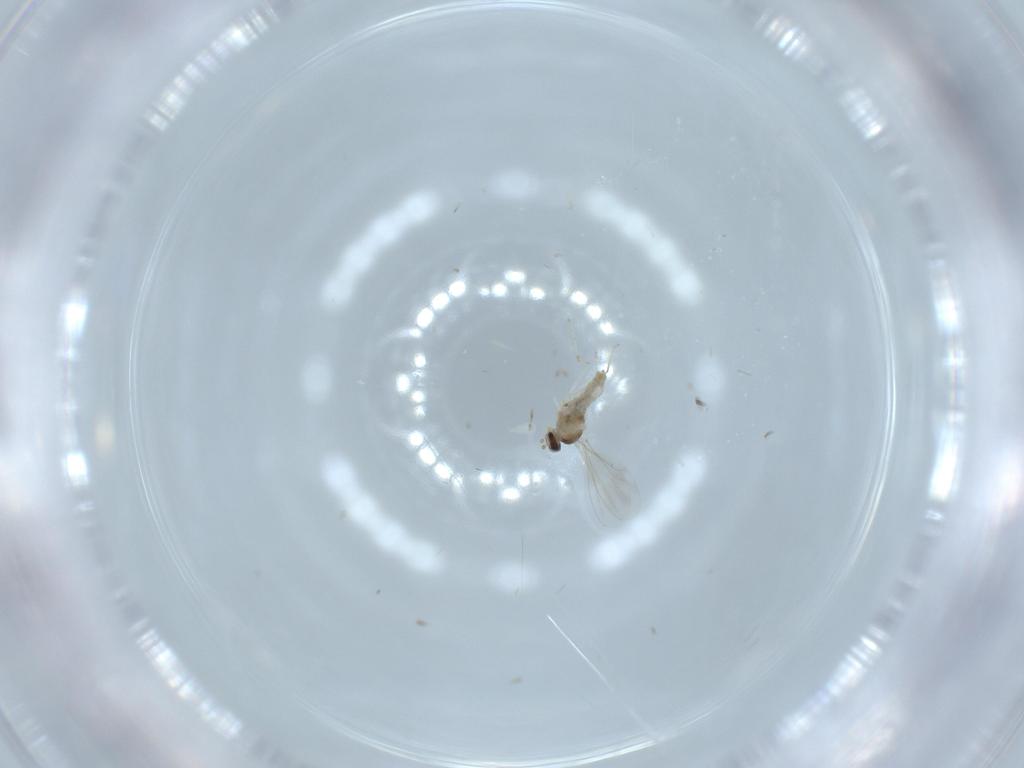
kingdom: Animalia
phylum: Arthropoda
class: Insecta
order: Diptera
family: Cecidomyiidae
